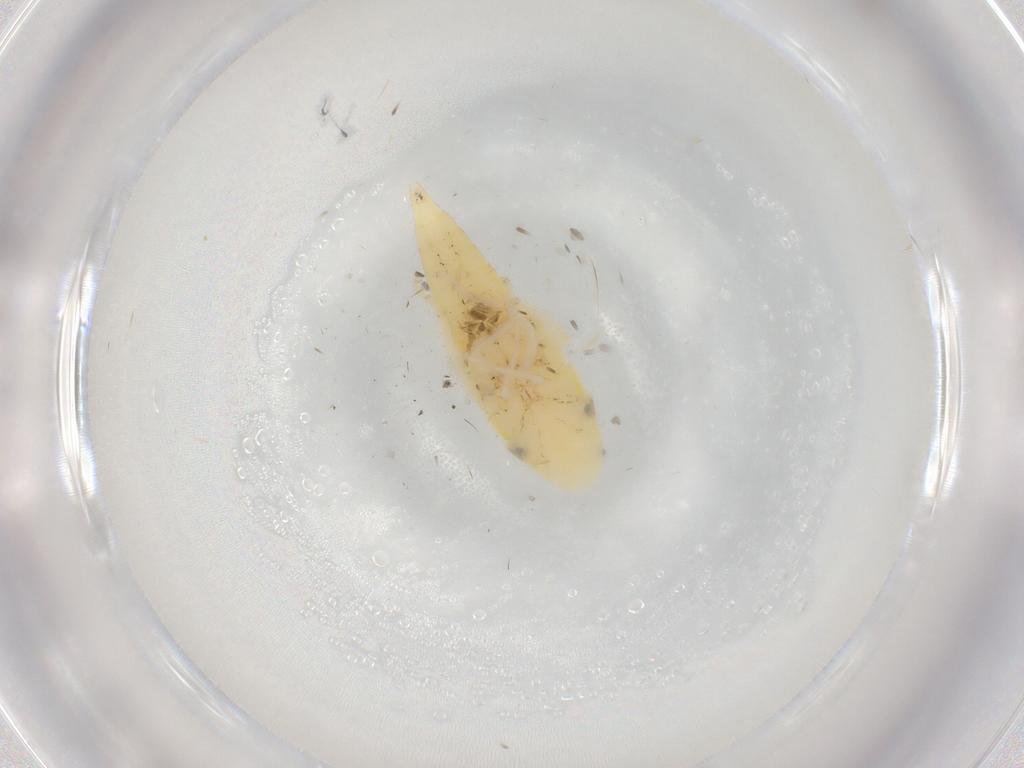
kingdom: Animalia
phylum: Arthropoda
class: Insecta
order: Hemiptera
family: Cicadellidae
